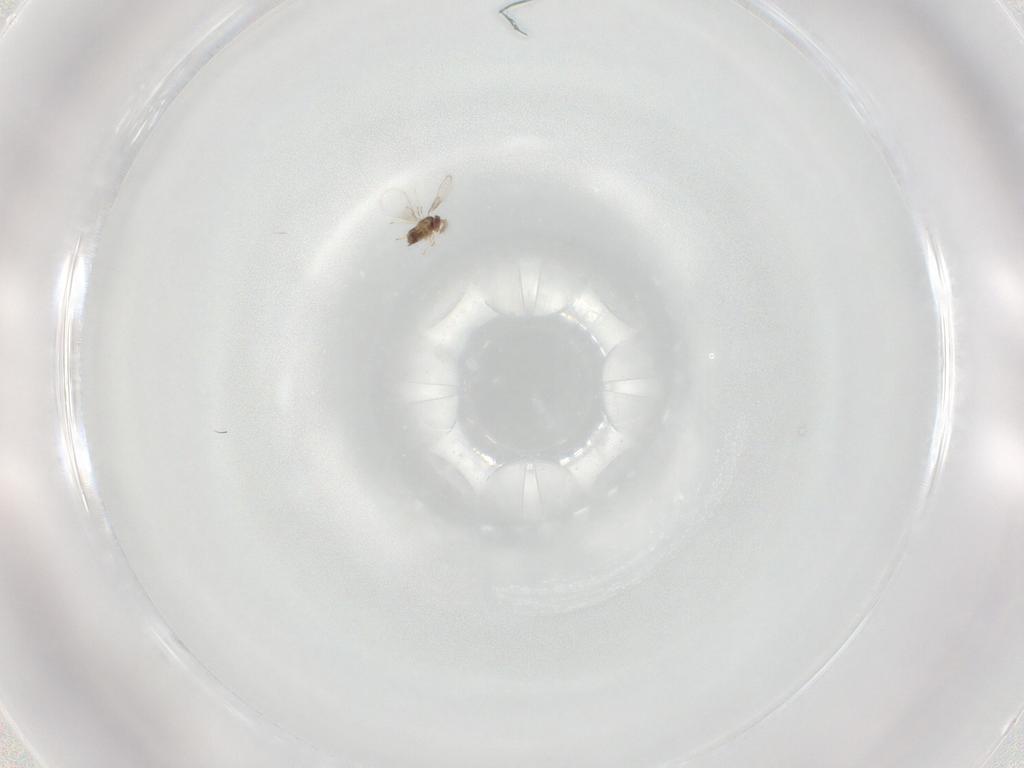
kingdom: Animalia
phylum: Arthropoda
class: Insecta
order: Hymenoptera
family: Trichogrammatidae
